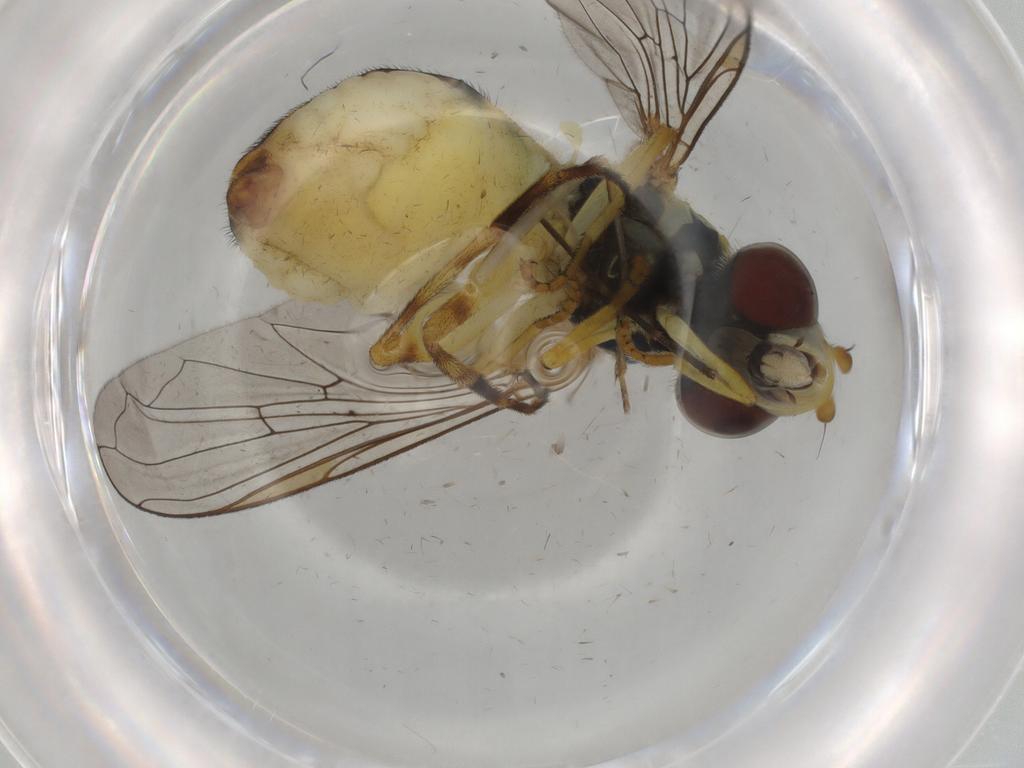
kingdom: Animalia
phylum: Arthropoda
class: Insecta
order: Diptera
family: Syrphidae
